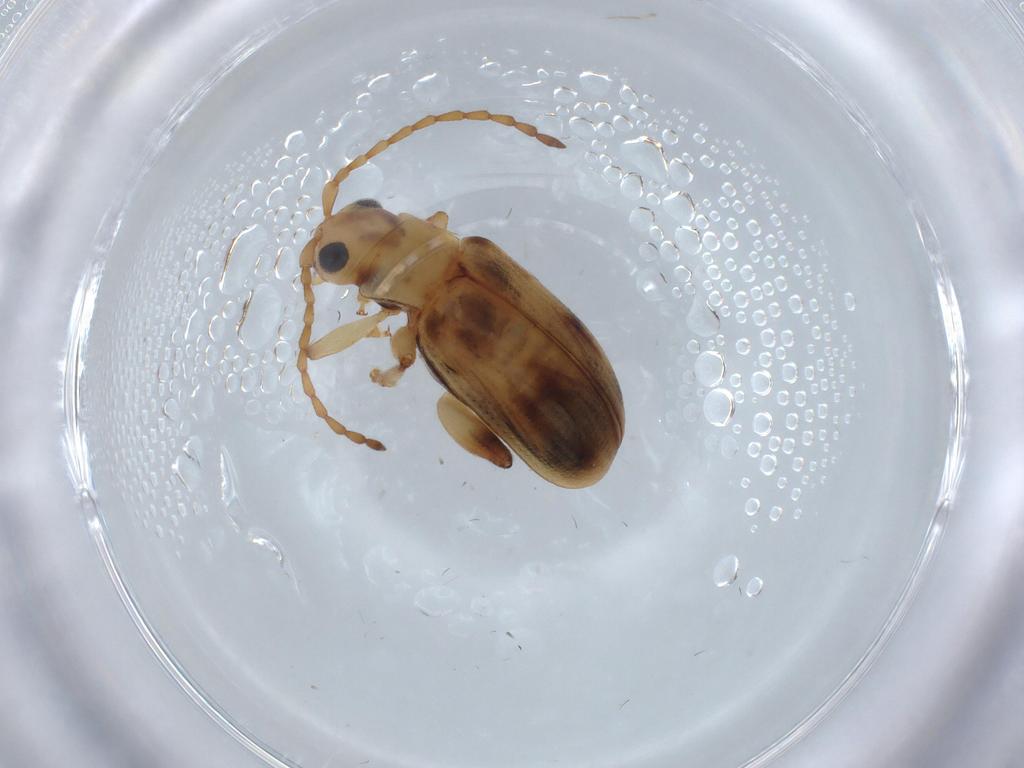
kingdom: Animalia
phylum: Arthropoda
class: Insecta
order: Coleoptera
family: Chrysomelidae
